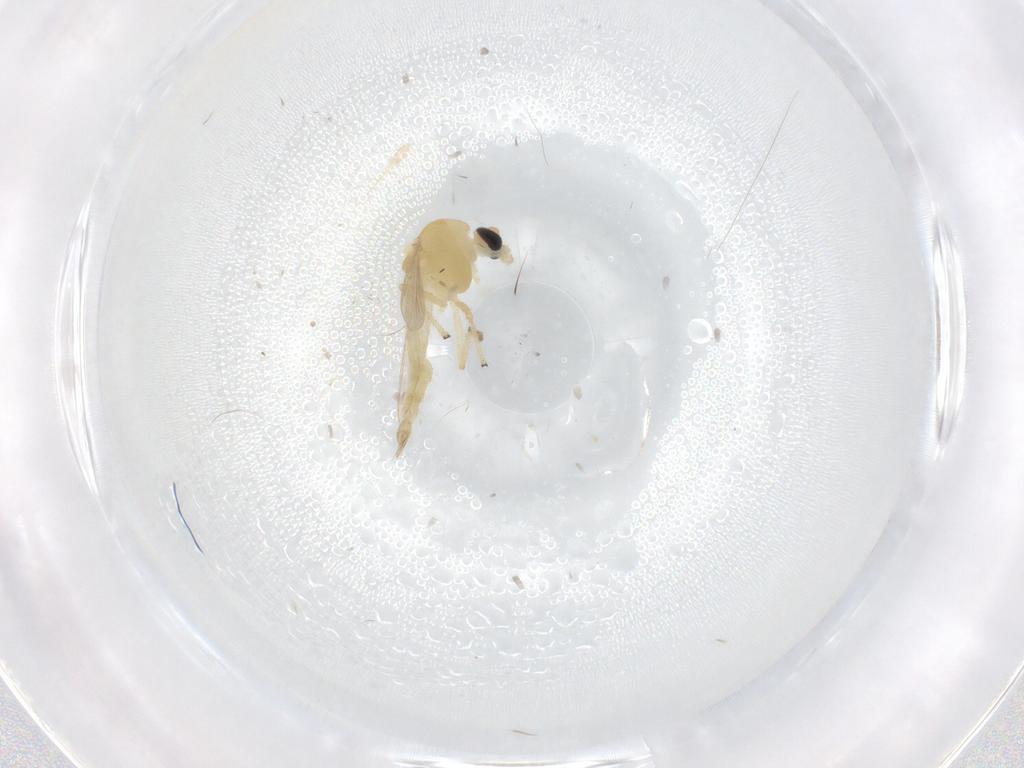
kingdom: Animalia
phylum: Arthropoda
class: Insecta
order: Diptera
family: Chironomidae
